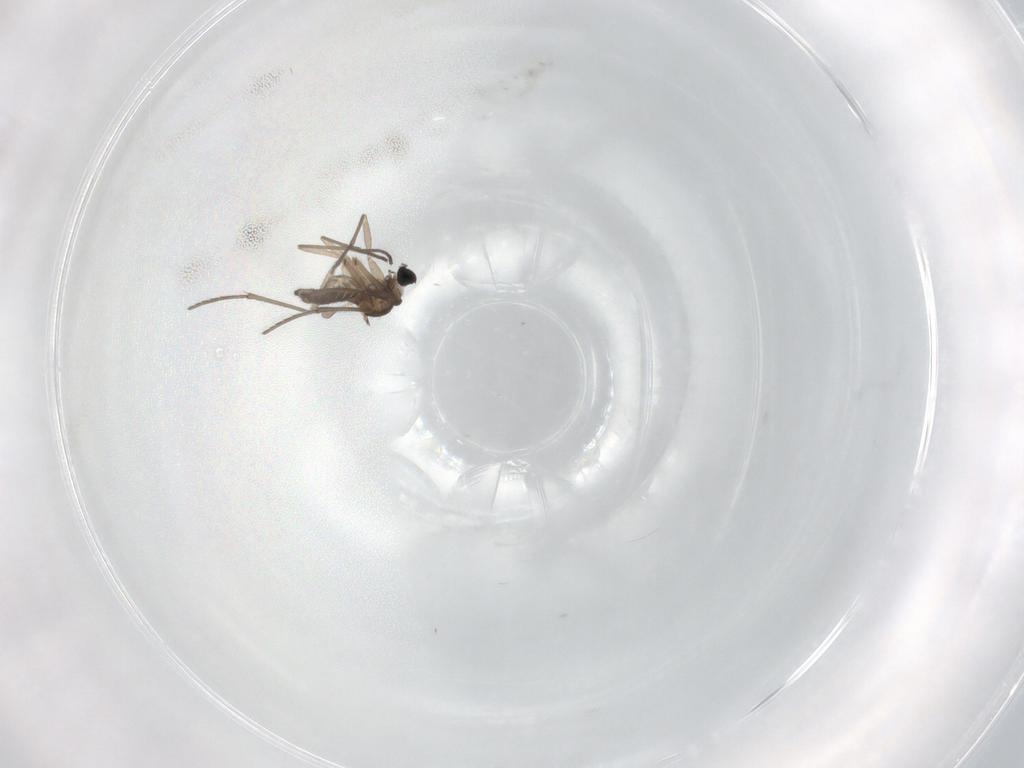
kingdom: Animalia
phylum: Arthropoda
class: Insecta
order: Diptera
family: Sciaridae
